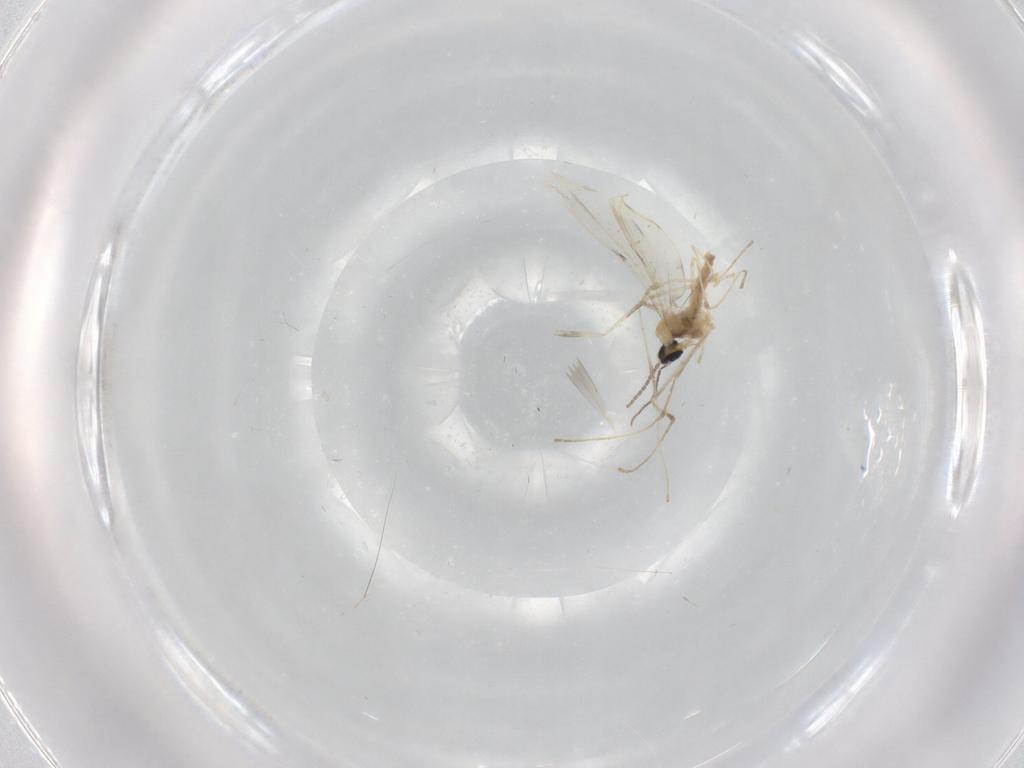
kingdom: Animalia
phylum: Arthropoda
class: Insecta
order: Diptera
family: Cecidomyiidae
